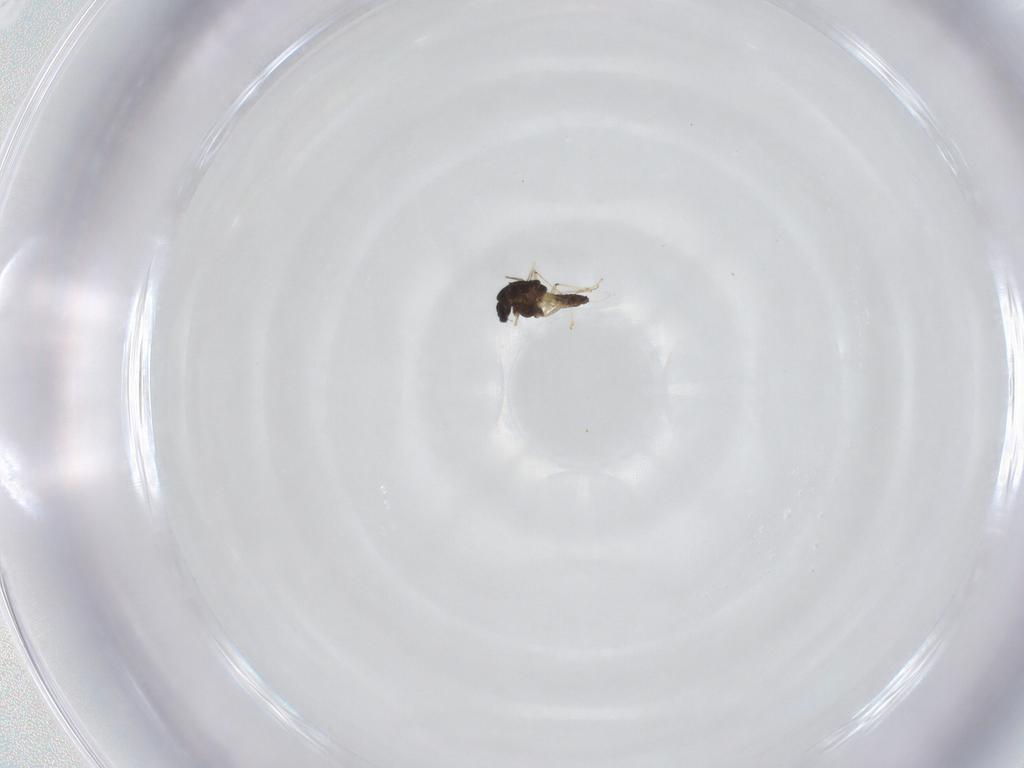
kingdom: Animalia
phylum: Arthropoda
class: Insecta
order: Diptera
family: Chironomidae
